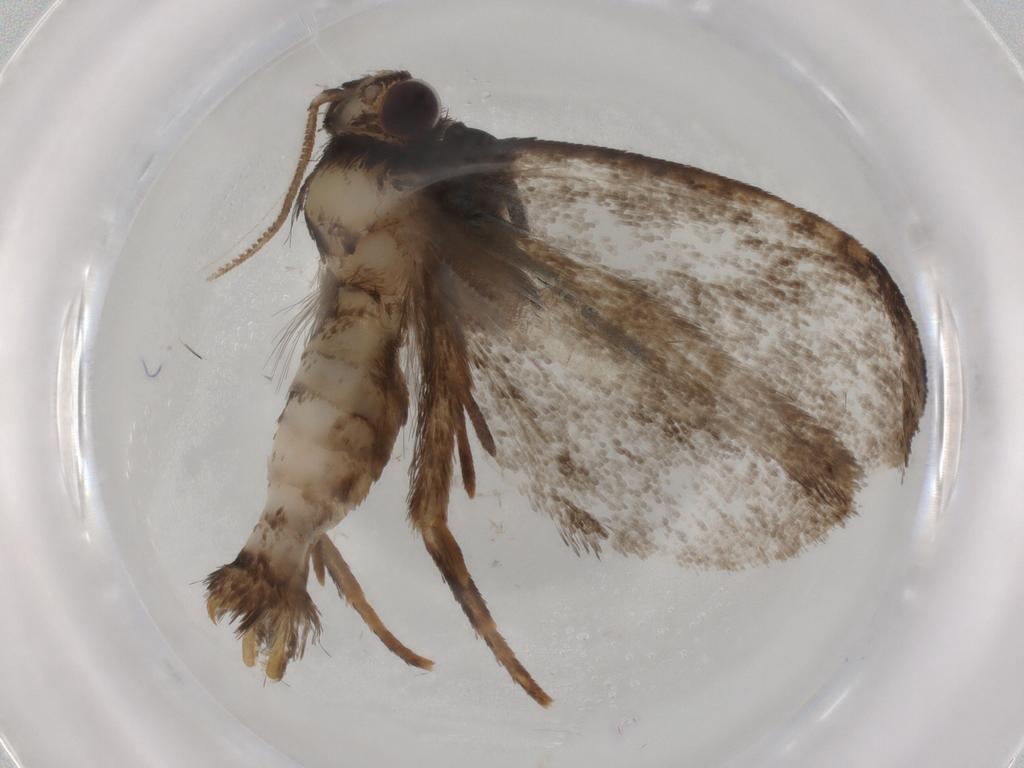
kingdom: Animalia
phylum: Arthropoda
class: Insecta
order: Lepidoptera
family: Tineidae
